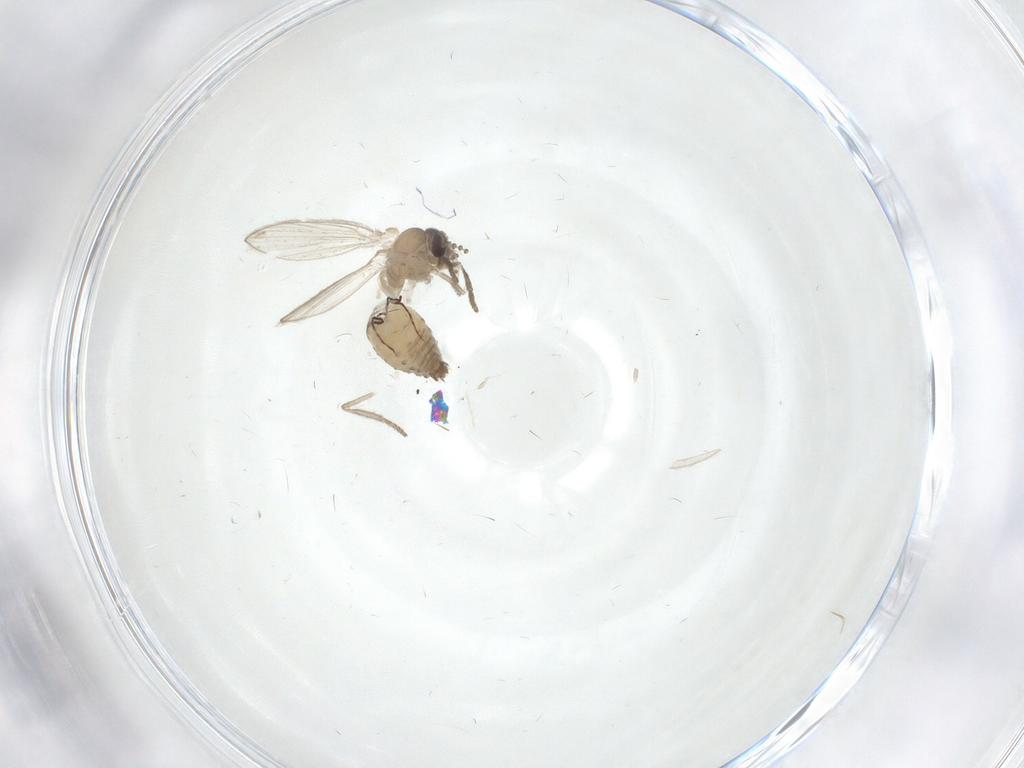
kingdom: Animalia
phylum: Arthropoda
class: Insecta
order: Diptera
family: Psychodidae
